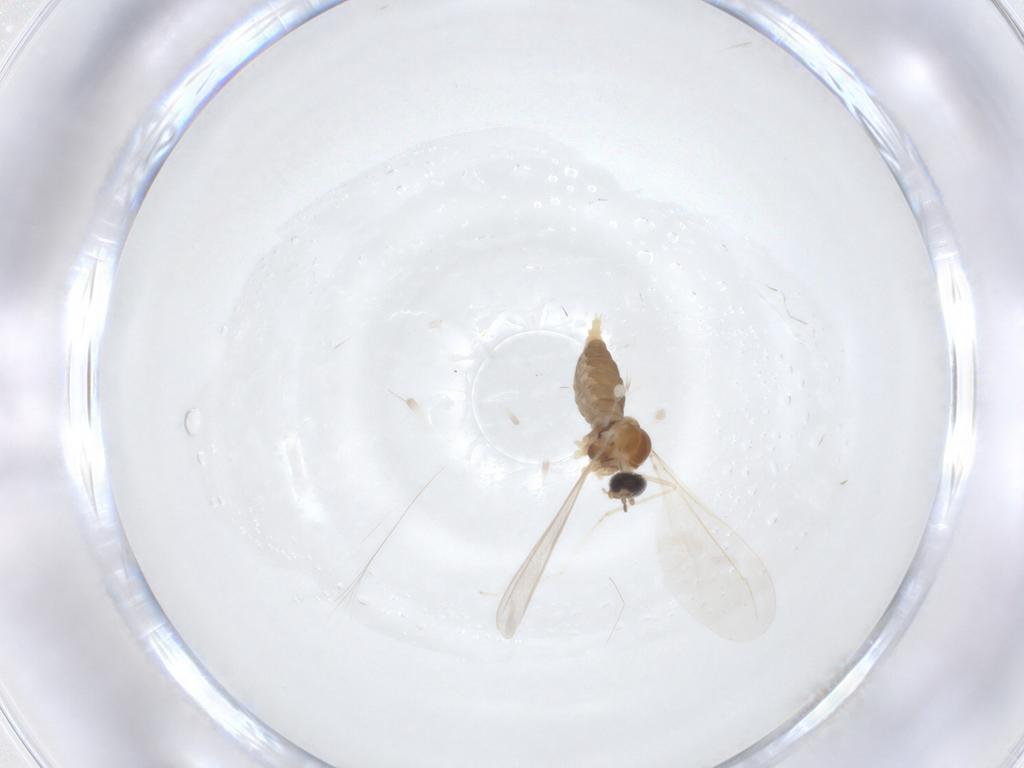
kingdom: Animalia
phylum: Arthropoda
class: Insecta
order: Diptera
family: Cecidomyiidae
